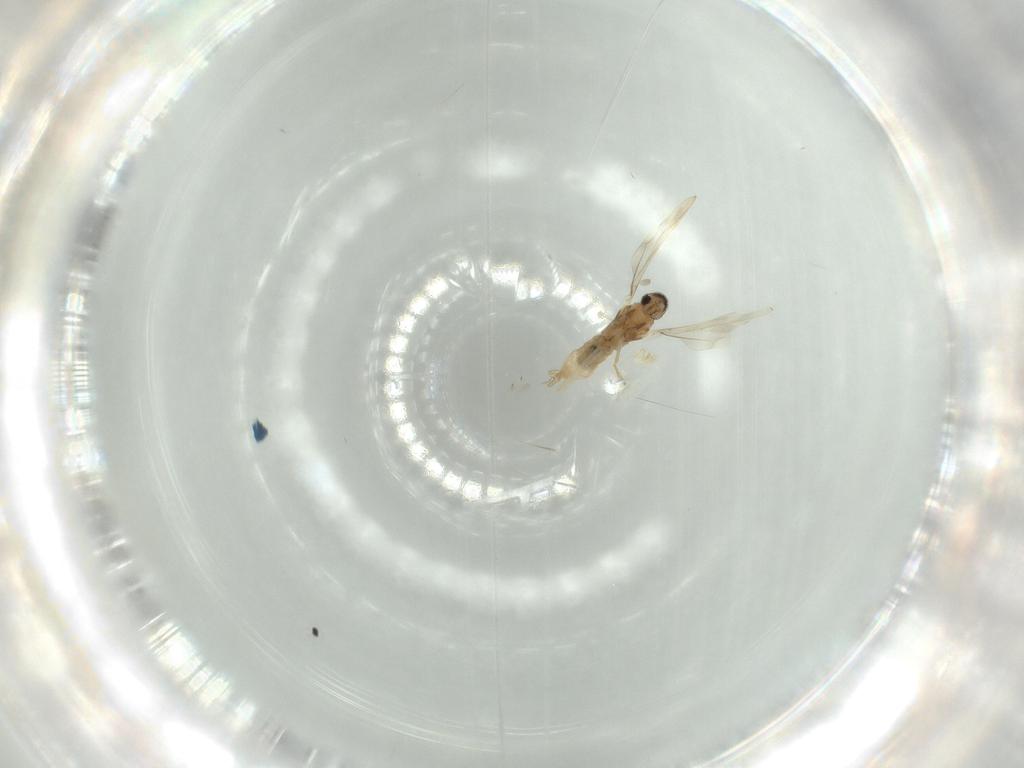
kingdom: Animalia
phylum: Arthropoda
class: Insecta
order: Diptera
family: Sciaridae
